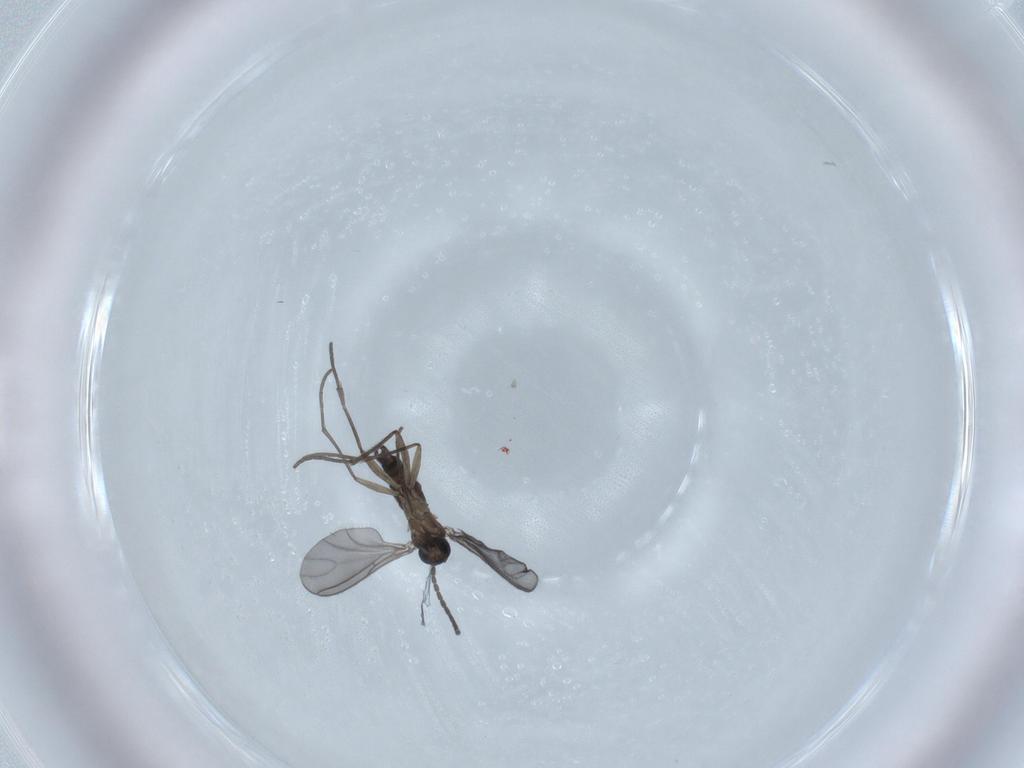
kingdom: Animalia
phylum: Arthropoda
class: Insecta
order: Diptera
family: Sciaridae
